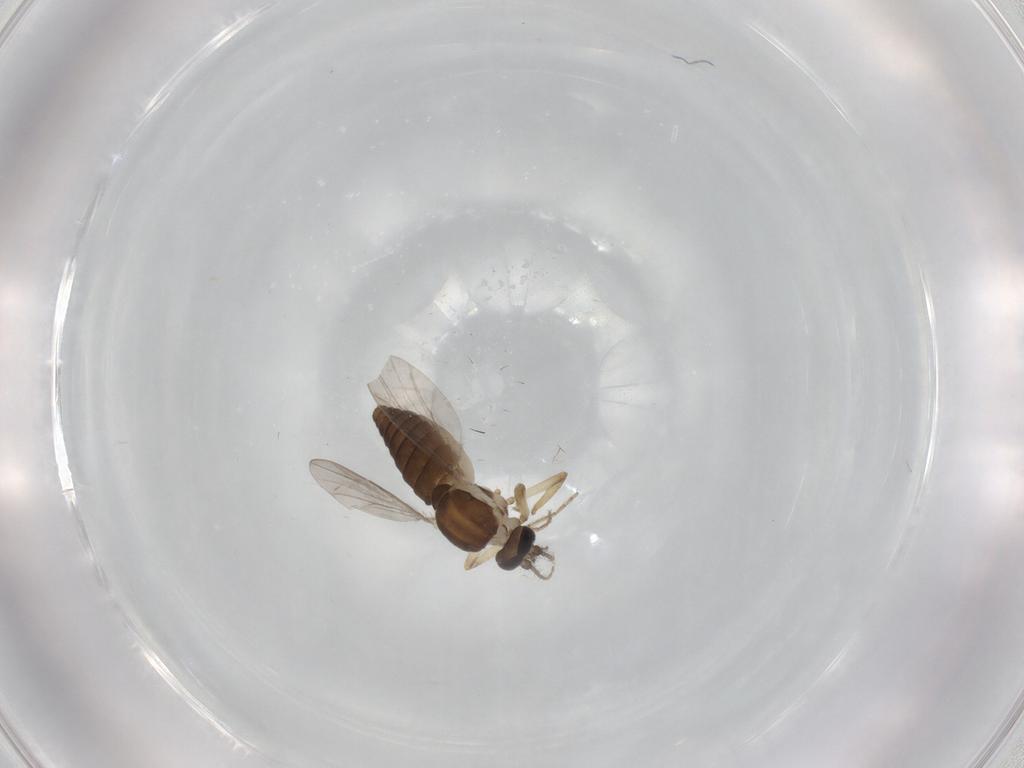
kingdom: Animalia
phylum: Arthropoda
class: Insecta
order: Diptera
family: Ceratopogonidae
